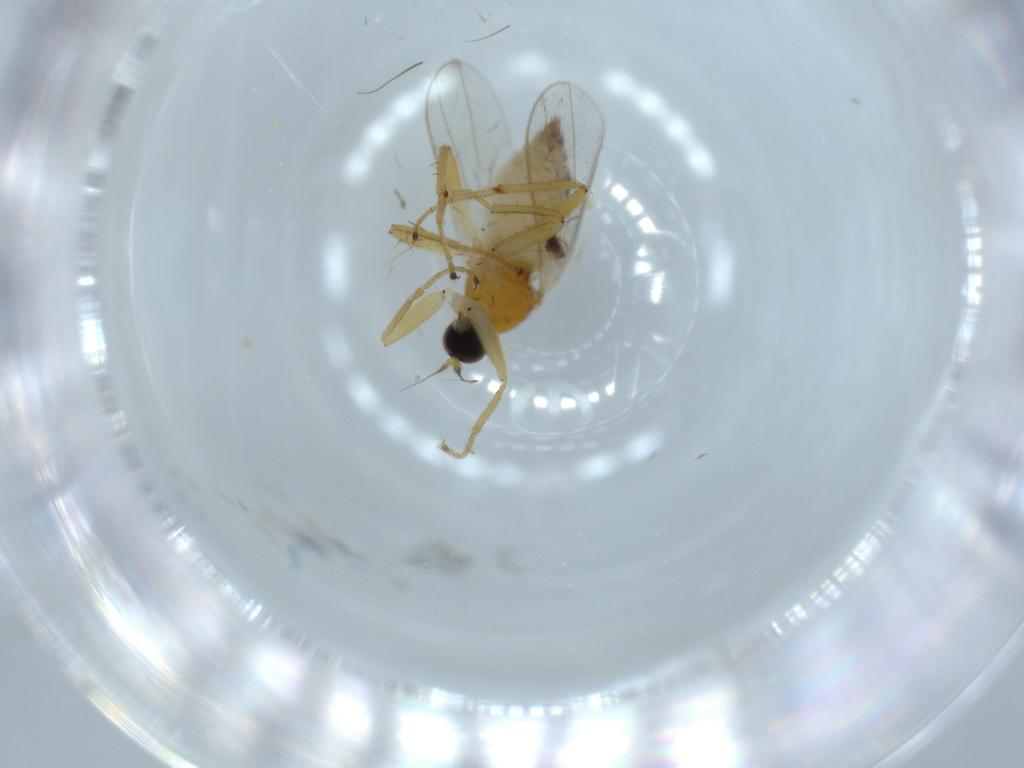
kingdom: Animalia
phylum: Arthropoda
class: Insecta
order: Diptera
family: Hybotidae
